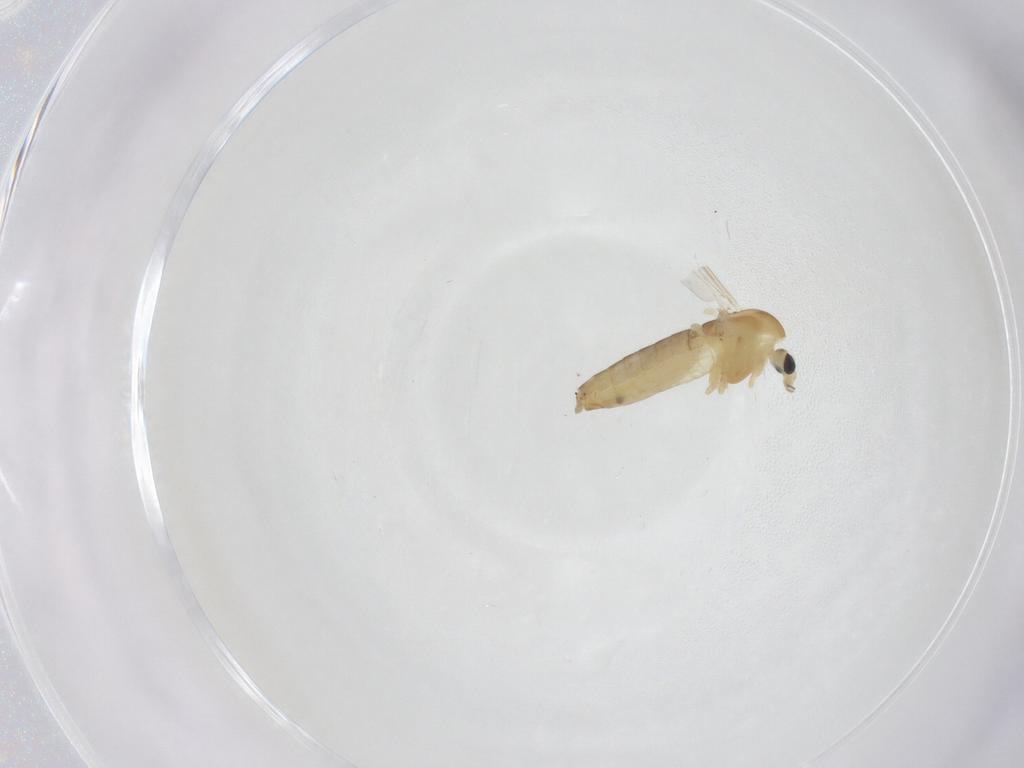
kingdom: Animalia
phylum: Arthropoda
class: Insecta
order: Diptera
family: Chironomidae
